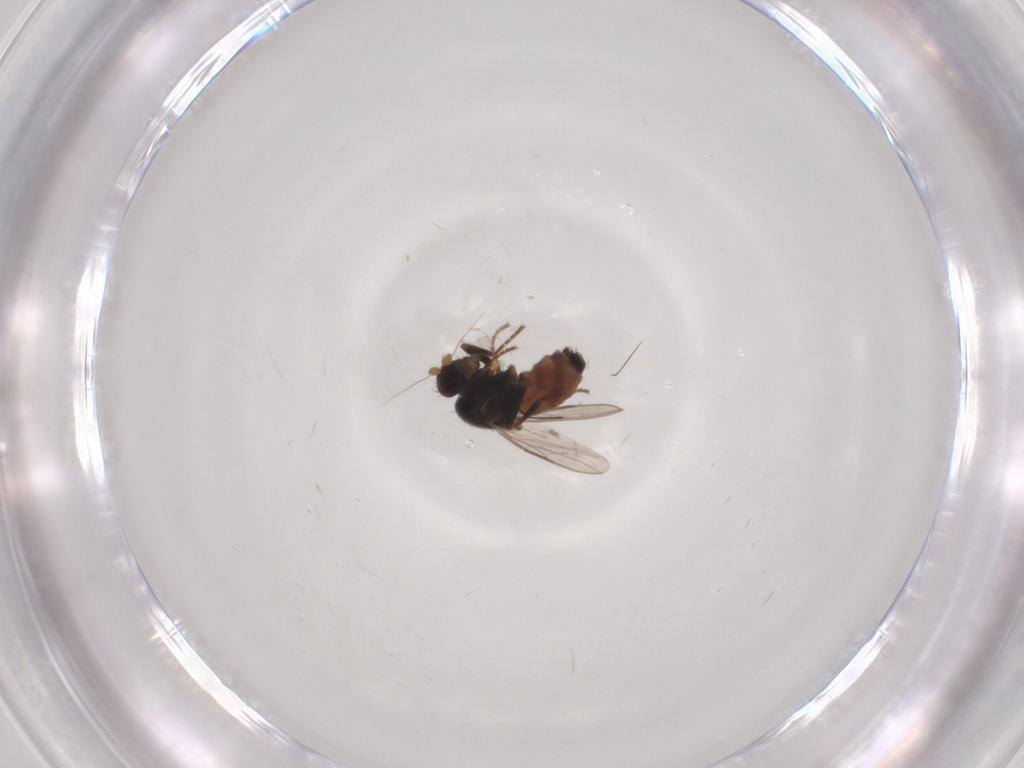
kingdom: Animalia
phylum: Arthropoda
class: Insecta
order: Diptera
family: Sphaeroceridae
